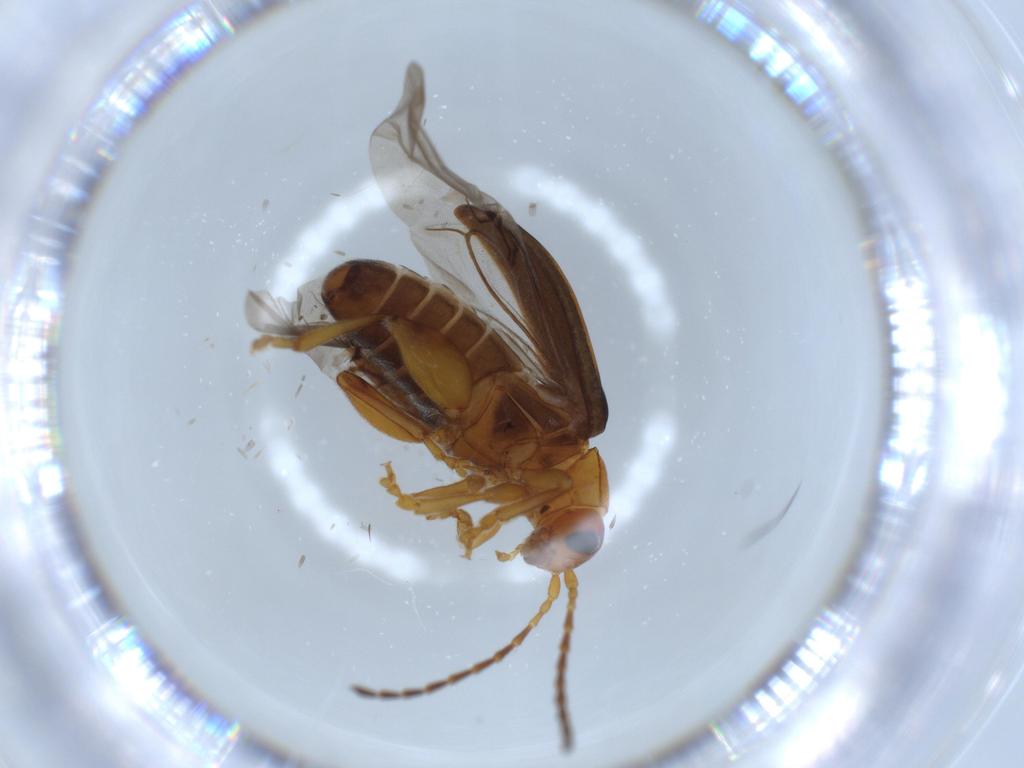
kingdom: Animalia
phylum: Arthropoda
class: Insecta
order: Coleoptera
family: Chrysomelidae
